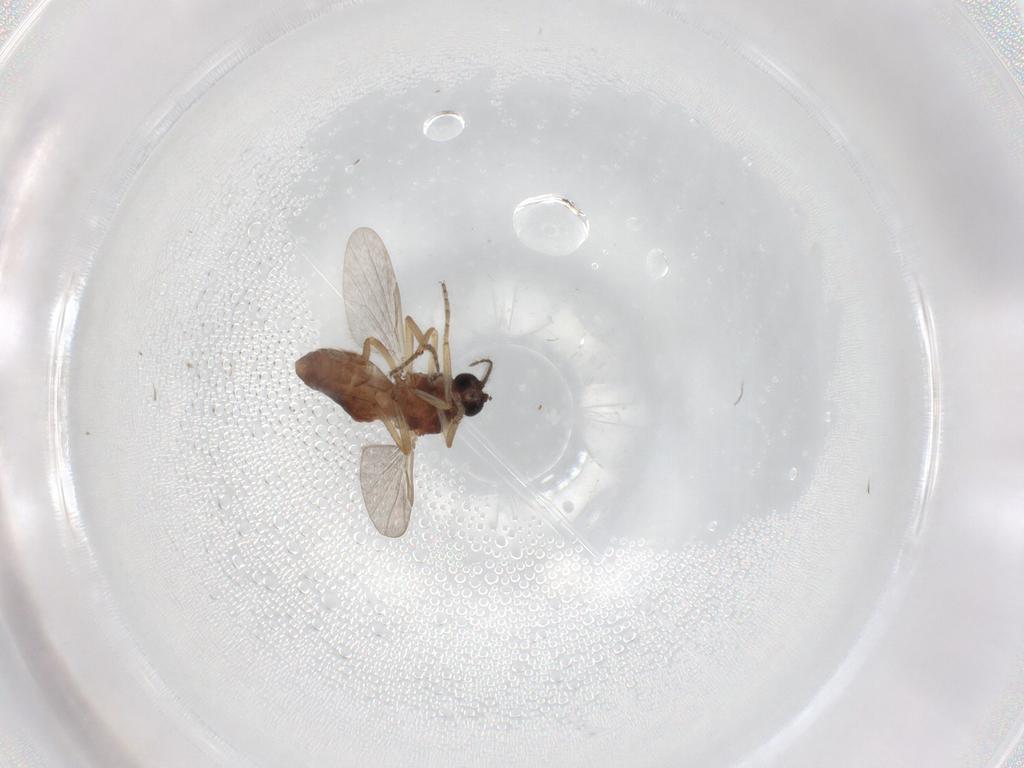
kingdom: Animalia
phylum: Arthropoda
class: Insecta
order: Diptera
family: Ceratopogonidae
